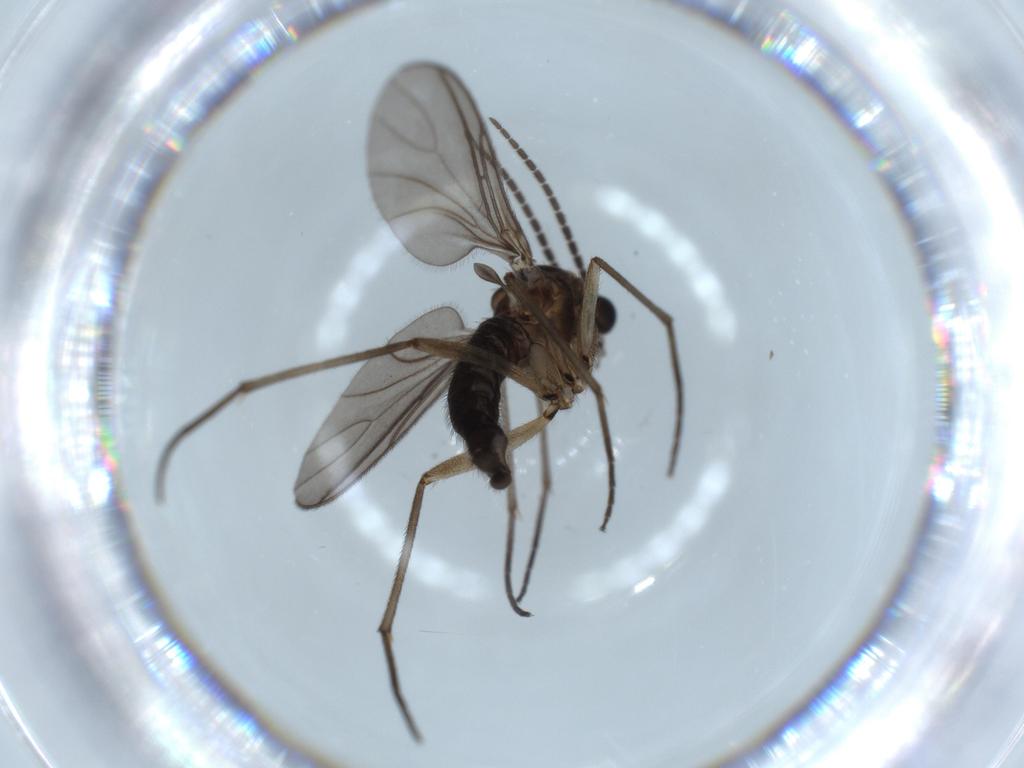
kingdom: Animalia
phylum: Arthropoda
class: Insecta
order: Diptera
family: Sciaridae
